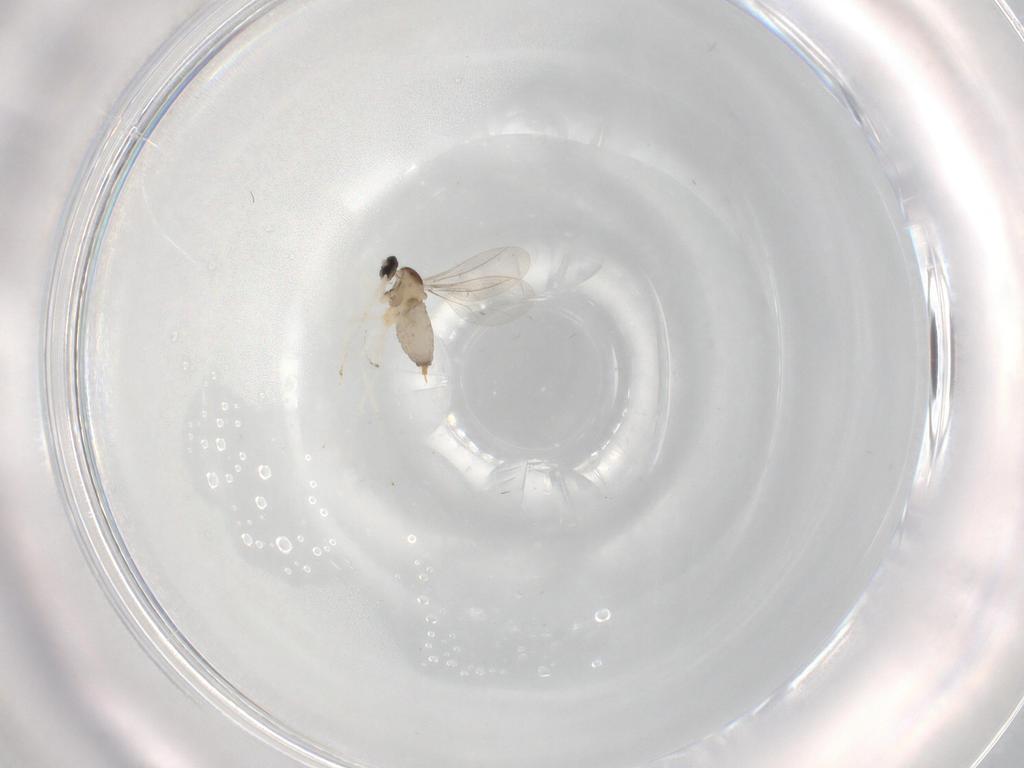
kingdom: Animalia
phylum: Arthropoda
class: Insecta
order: Diptera
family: Cecidomyiidae
